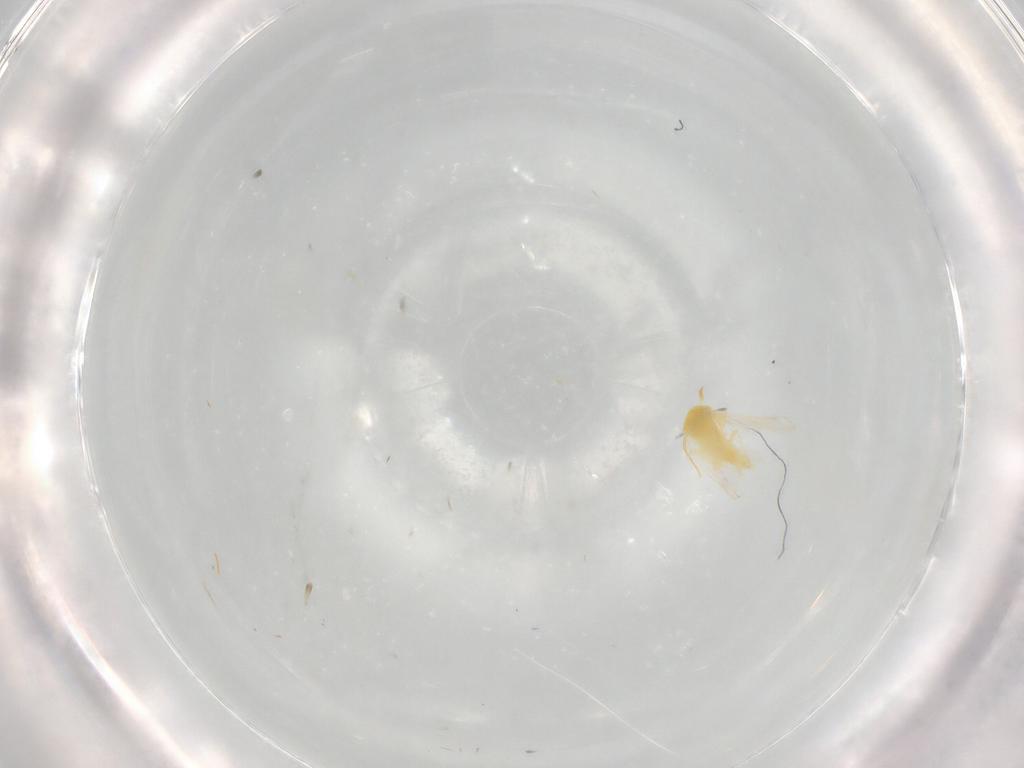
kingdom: Animalia
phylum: Arthropoda
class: Insecta
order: Hemiptera
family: Aleyrodidae
